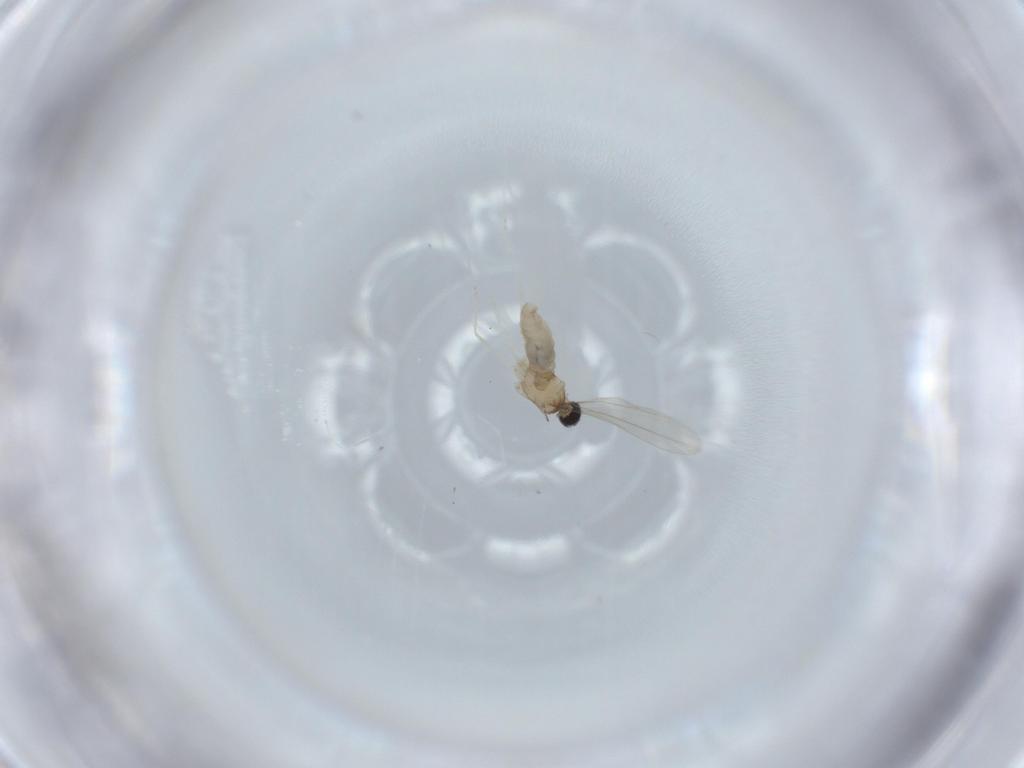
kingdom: Animalia
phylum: Arthropoda
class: Insecta
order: Diptera
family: Cecidomyiidae
